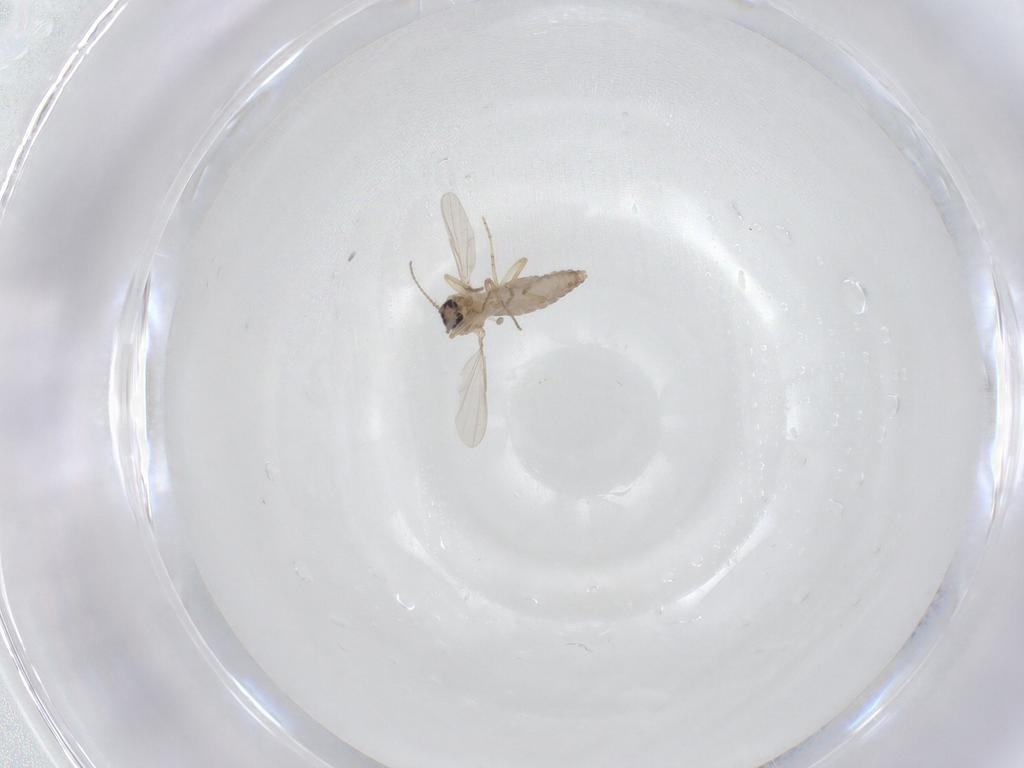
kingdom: Animalia
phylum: Arthropoda
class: Insecta
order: Diptera
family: Ceratopogonidae
